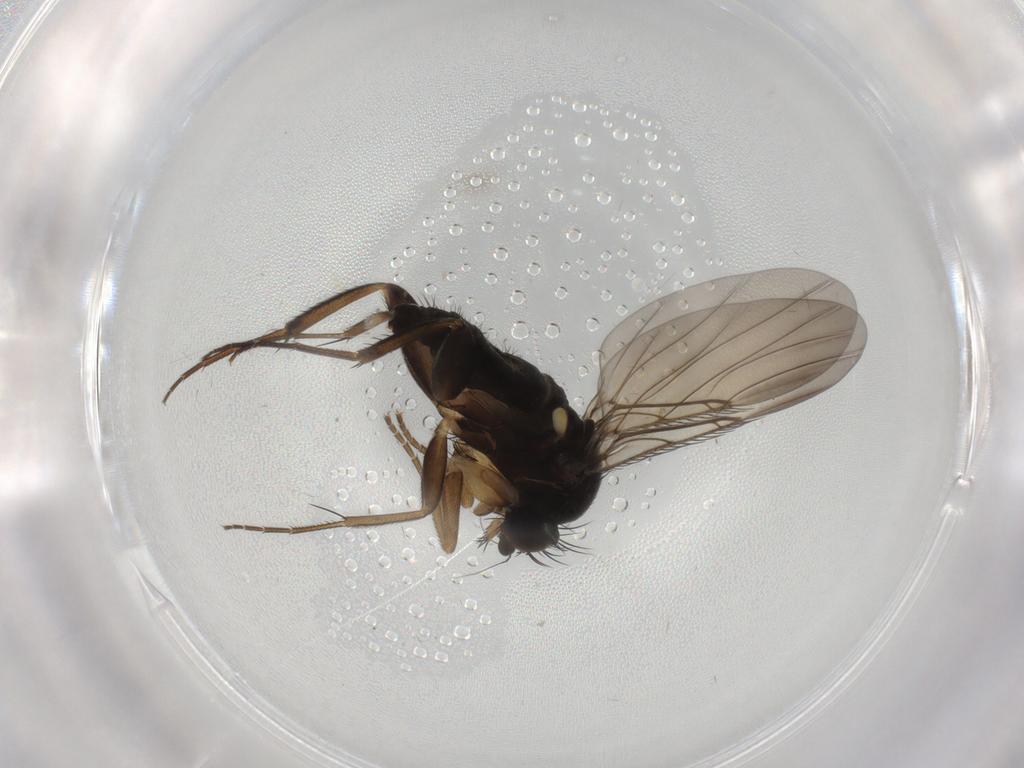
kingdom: Animalia
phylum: Arthropoda
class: Insecta
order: Diptera
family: Phoridae
